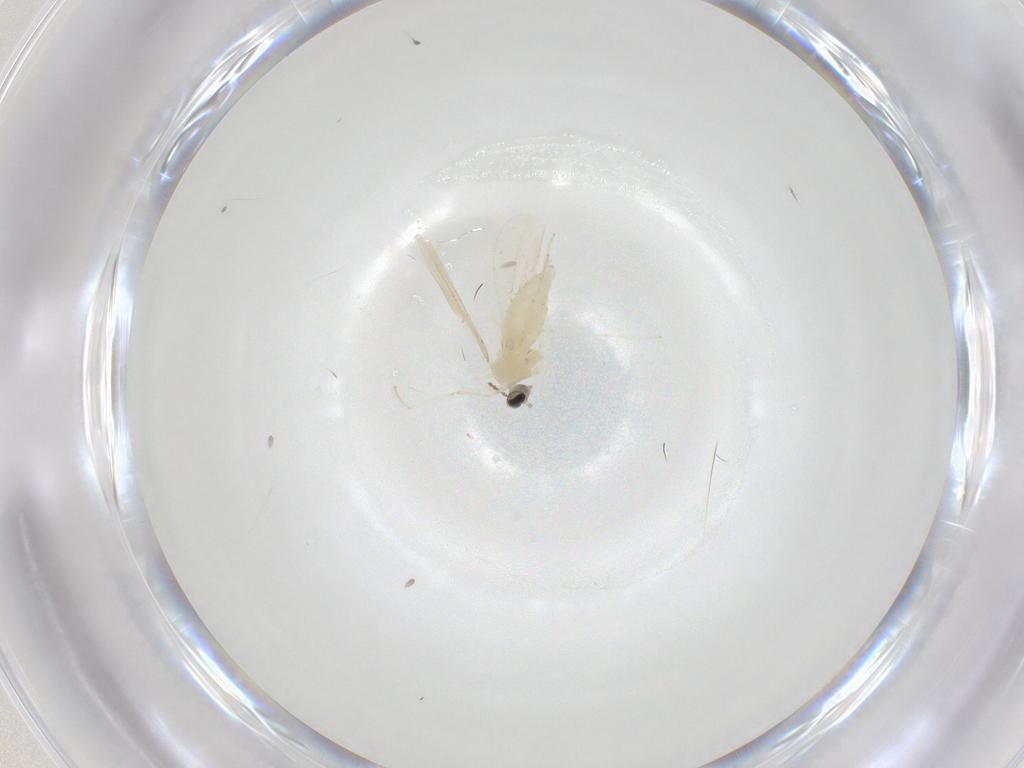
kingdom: Animalia
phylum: Arthropoda
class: Insecta
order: Diptera
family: Cecidomyiidae
